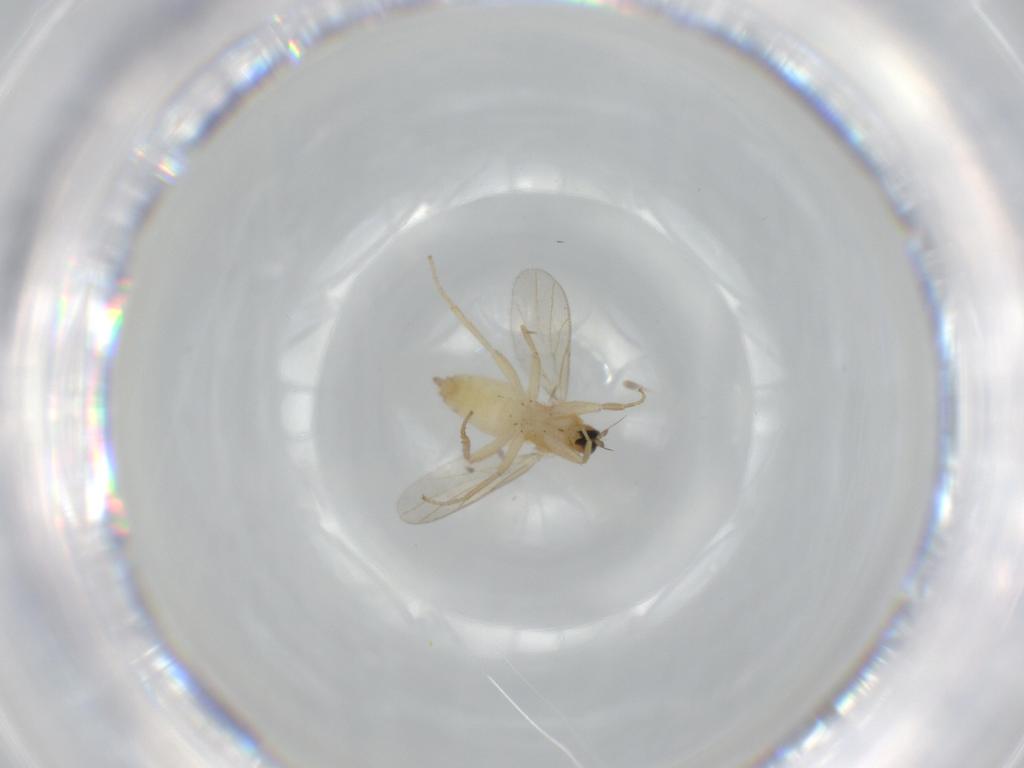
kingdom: Animalia
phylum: Arthropoda
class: Insecta
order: Diptera
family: Hybotidae
